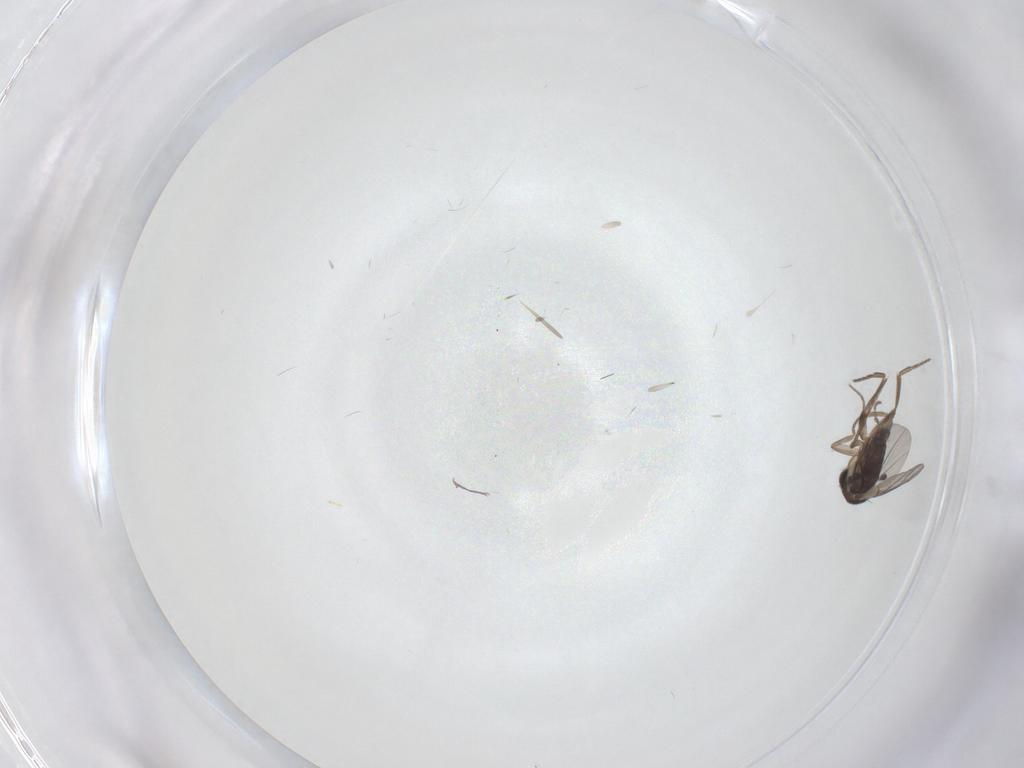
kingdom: Animalia
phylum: Arthropoda
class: Insecta
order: Diptera
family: Phoridae
